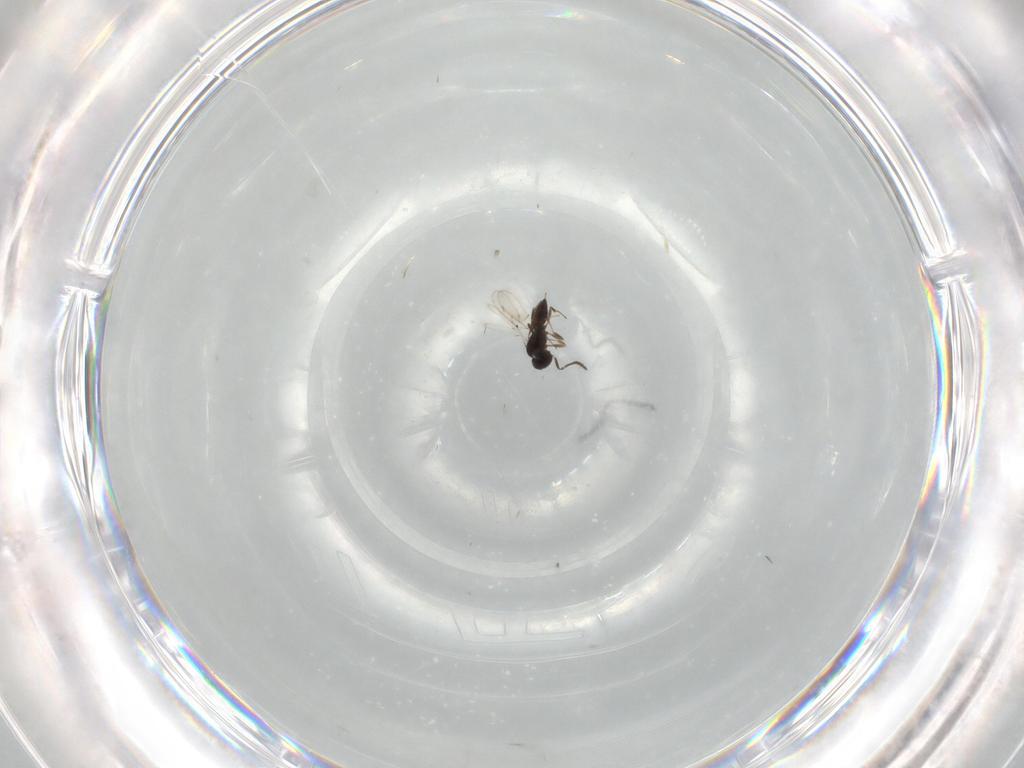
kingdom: Animalia
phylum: Arthropoda
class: Insecta
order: Hymenoptera
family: Scelionidae
